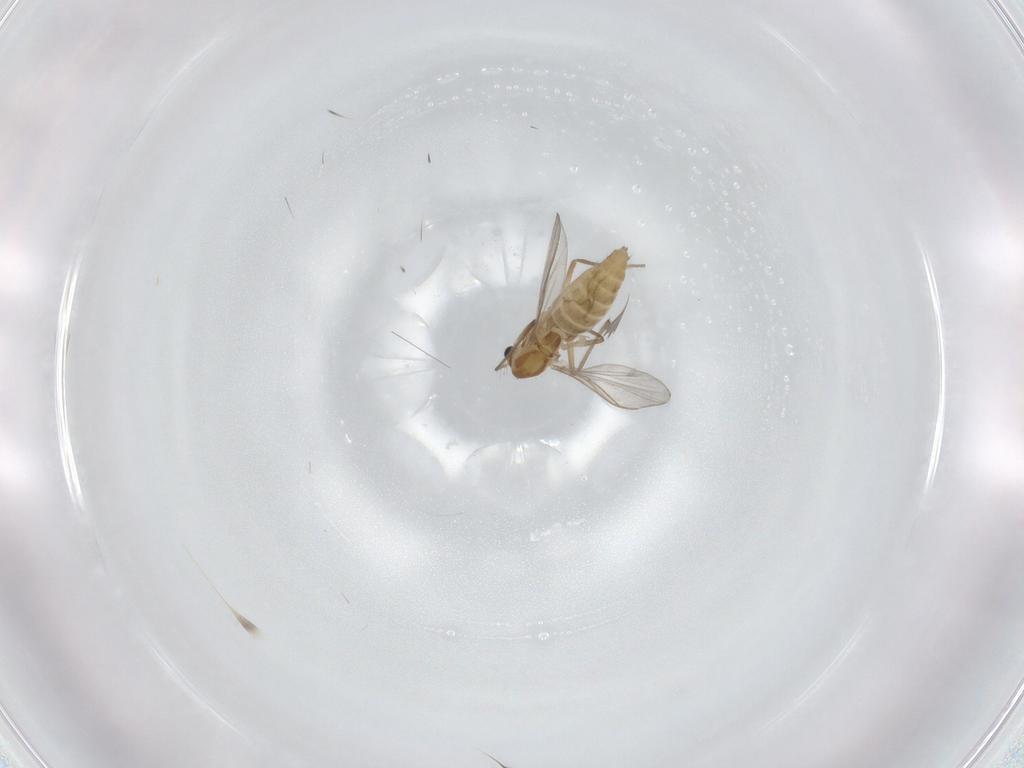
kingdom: Animalia
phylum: Arthropoda
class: Insecta
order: Diptera
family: Chironomidae
